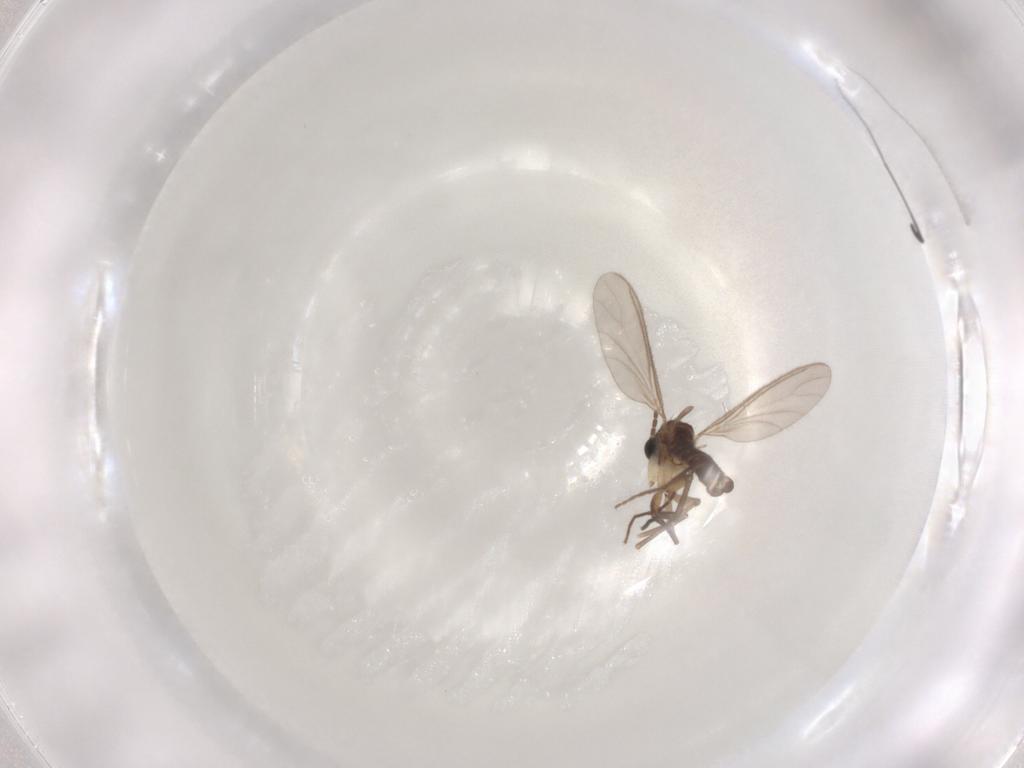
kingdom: Animalia
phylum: Arthropoda
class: Insecta
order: Diptera
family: Sciaridae
